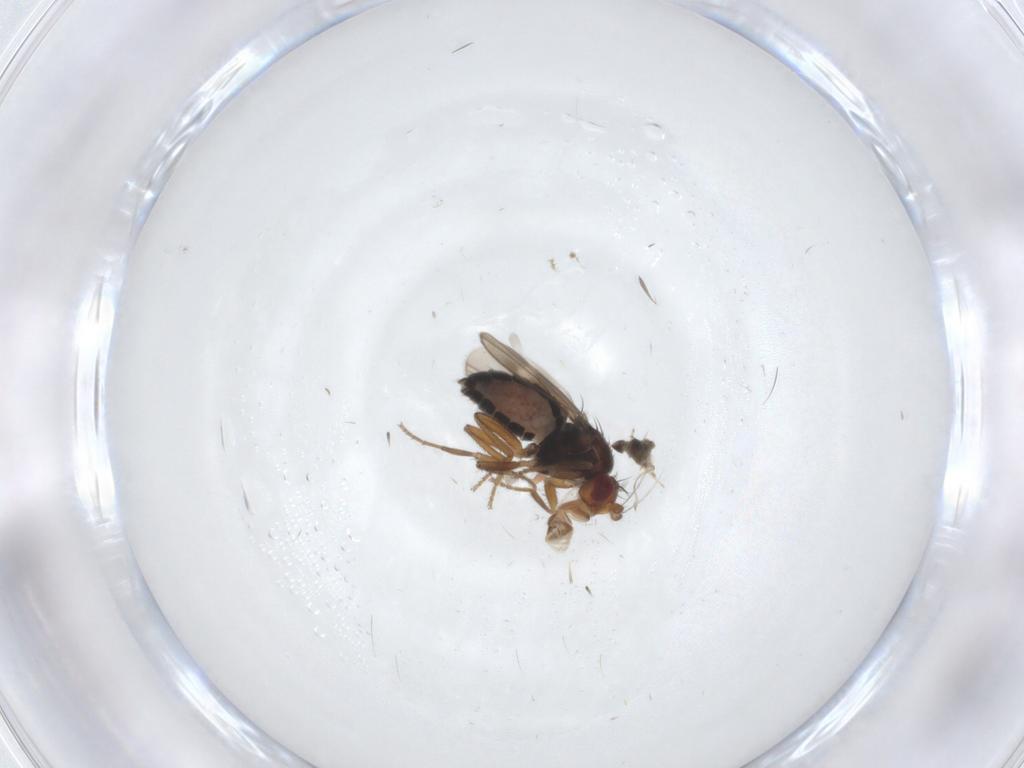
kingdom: Animalia
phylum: Arthropoda
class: Insecta
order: Diptera
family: Sphaeroceridae
